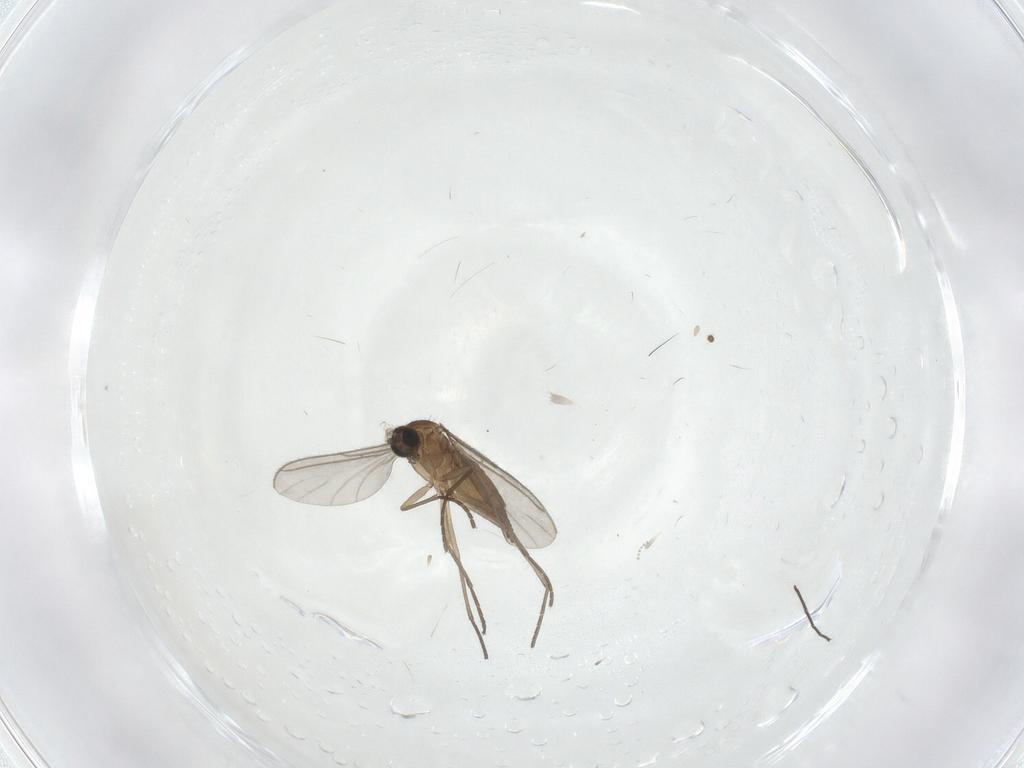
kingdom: Animalia
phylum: Arthropoda
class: Insecta
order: Diptera
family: Sciaridae
